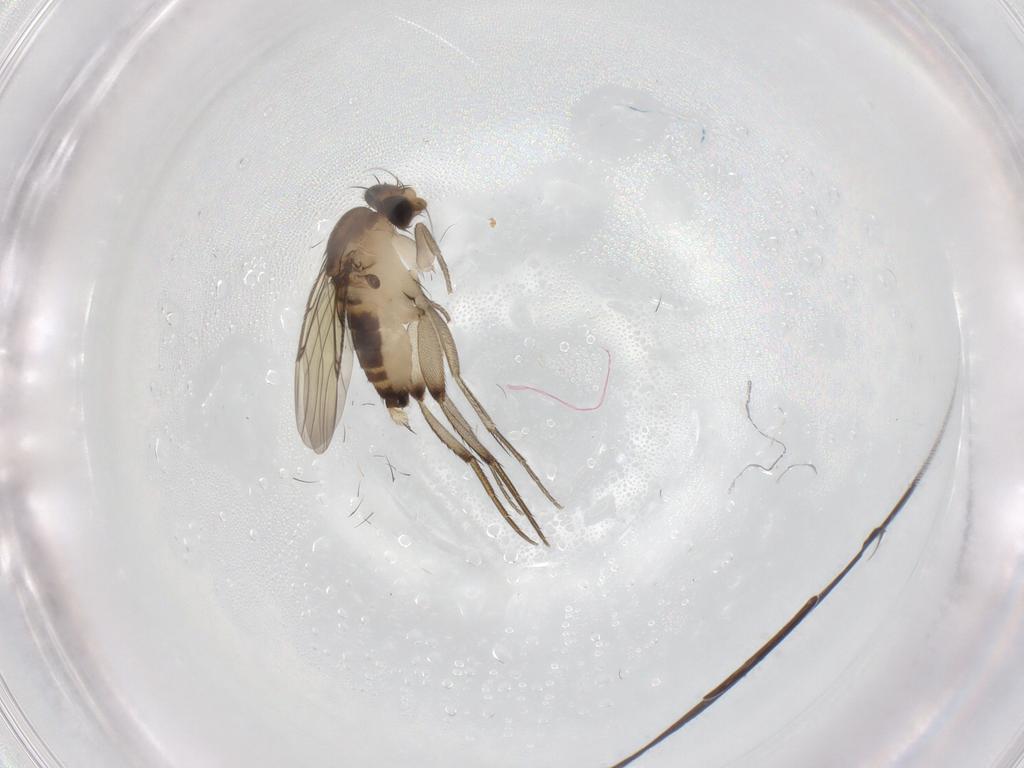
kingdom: Animalia
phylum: Arthropoda
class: Insecta
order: Diptera
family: Phoridae
